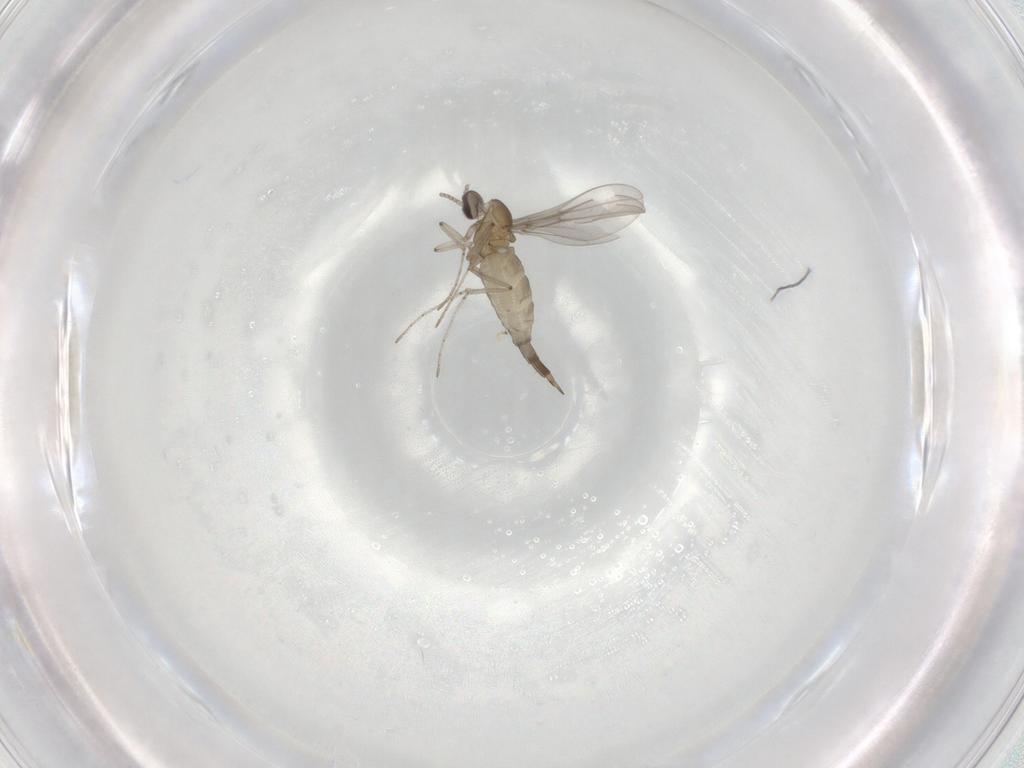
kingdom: Animalia
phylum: Arthropoda
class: Insecta
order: Diptera
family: Cecidomyiidae
